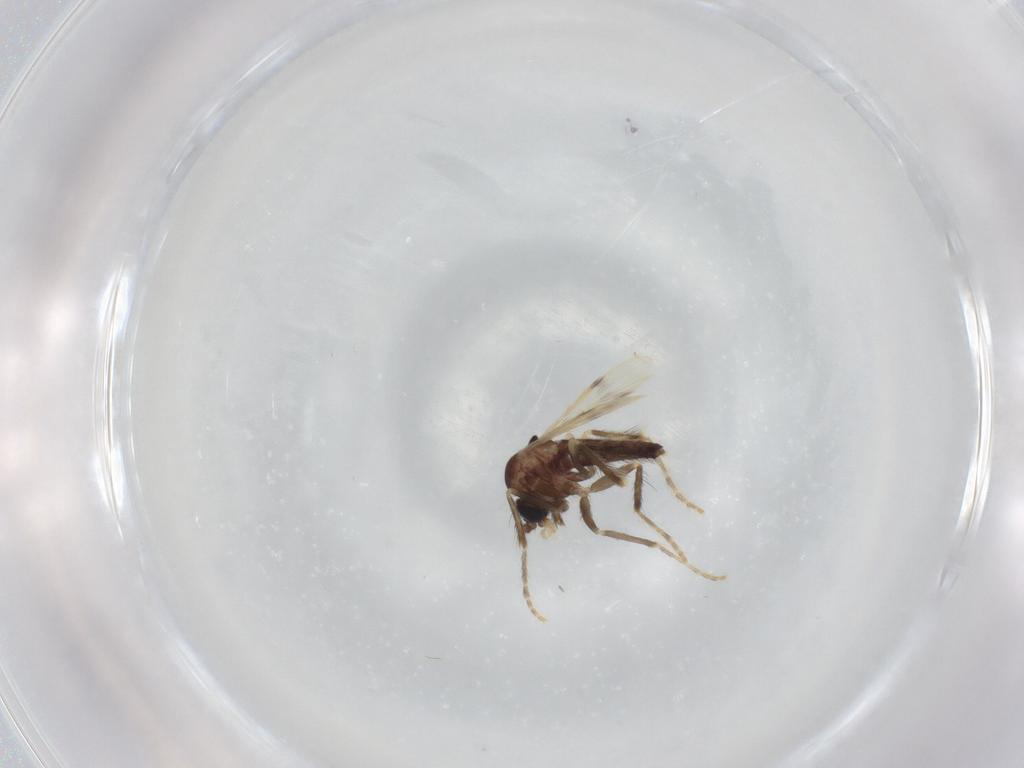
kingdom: Animalia
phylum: Arthropoda
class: Insecta
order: Diptera
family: Corethrellidae
